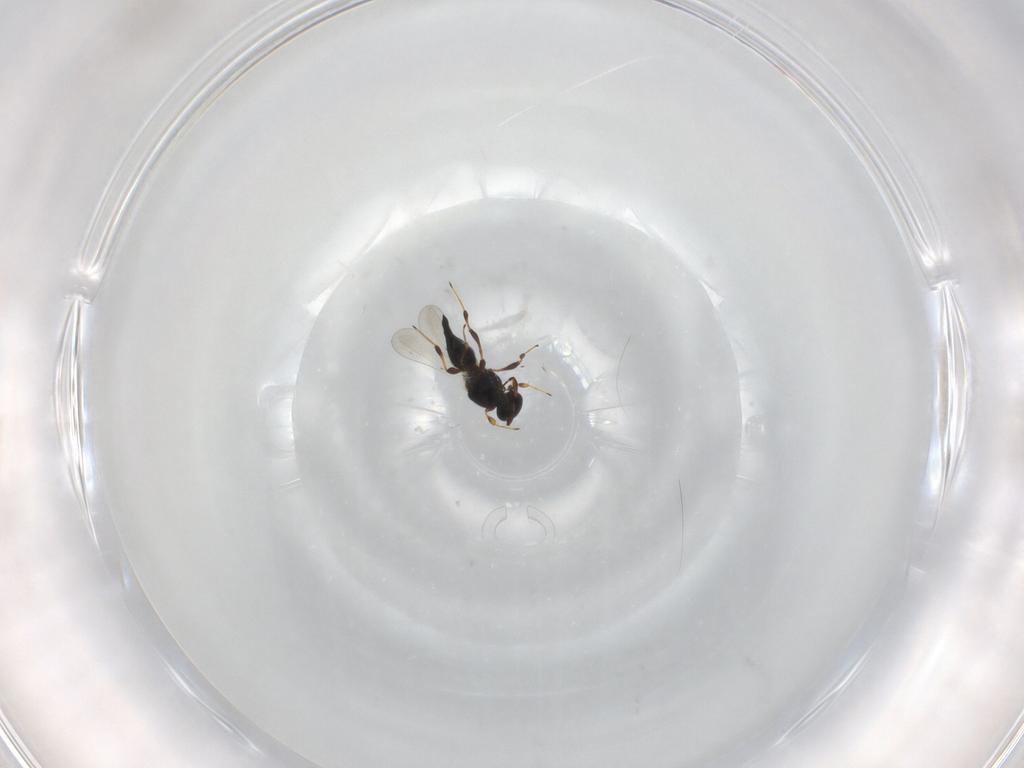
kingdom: Animalia
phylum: Arthropoda
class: Insecta
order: Hymenoptera
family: Platygastridae
